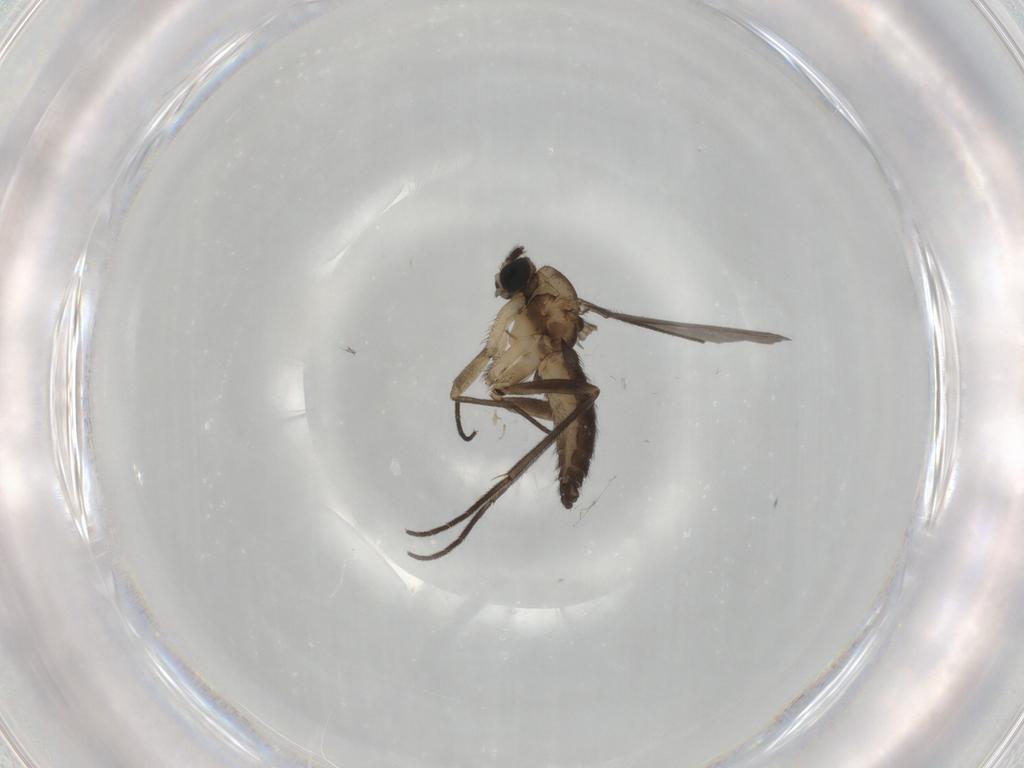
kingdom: Animalia
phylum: Arthropoda
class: Insecta
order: Diptera
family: Sciaridae
